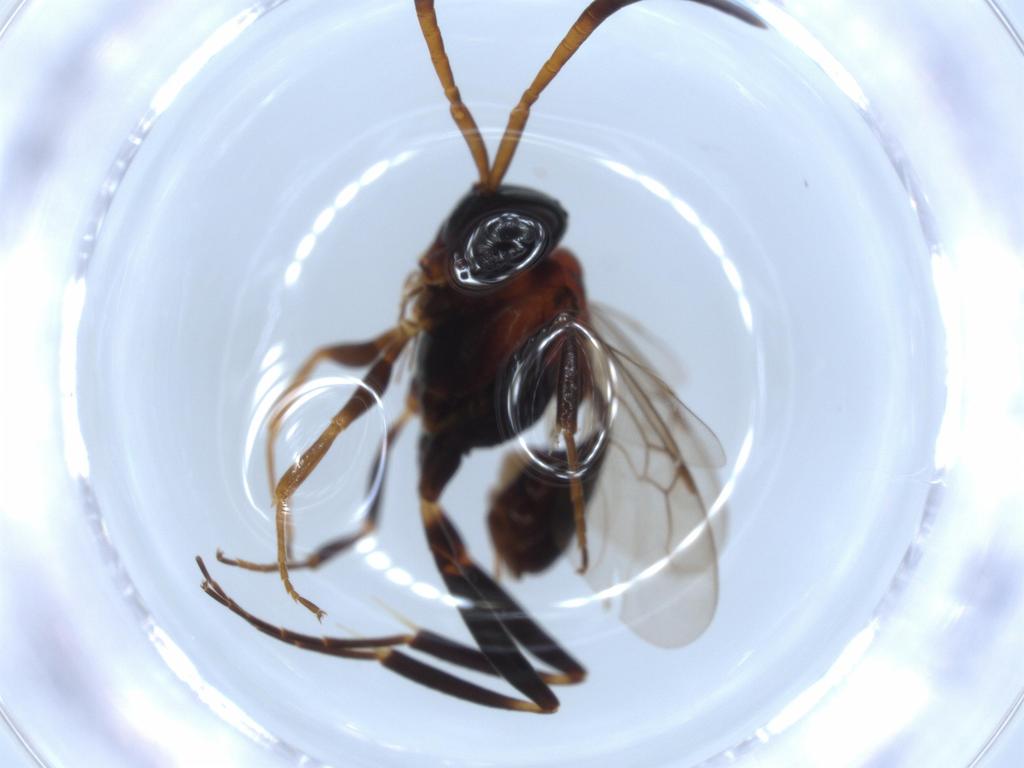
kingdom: Animalia
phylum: Arthropoda
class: Insecta
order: Hymenoptera
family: Evaniidae
